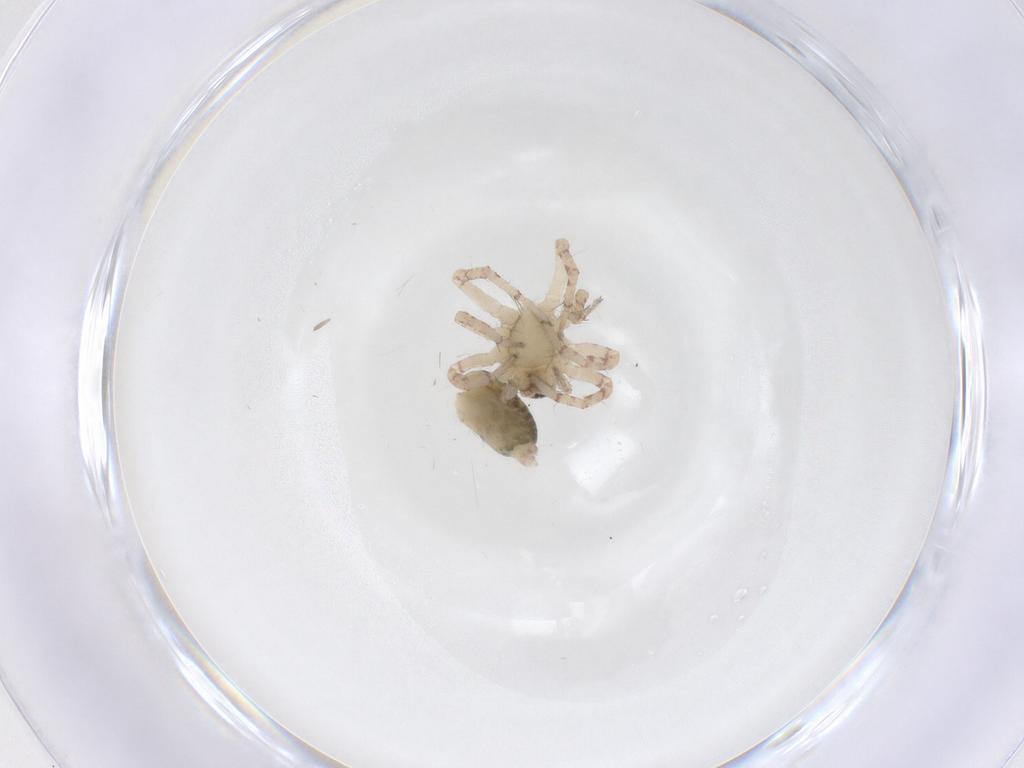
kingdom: Animalia
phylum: Arthropoda
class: Arachnida
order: Araneae
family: Anyphaenidae
